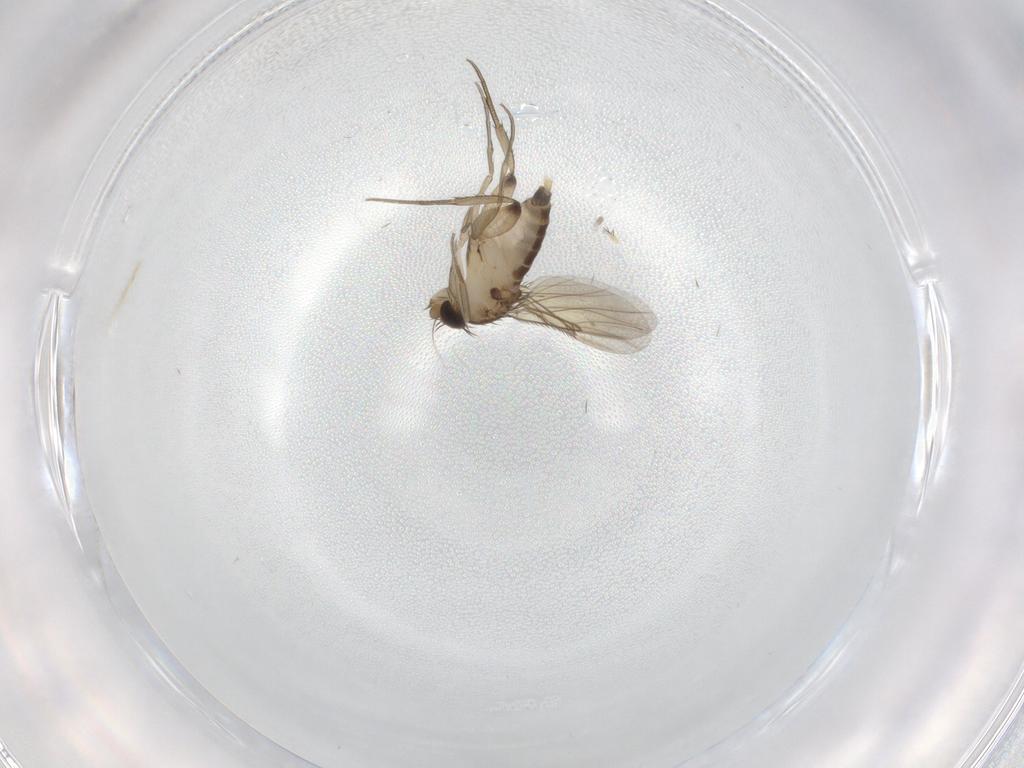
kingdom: Animalia
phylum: Arthropoda
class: Insecta
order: Diptera
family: Phoridae
